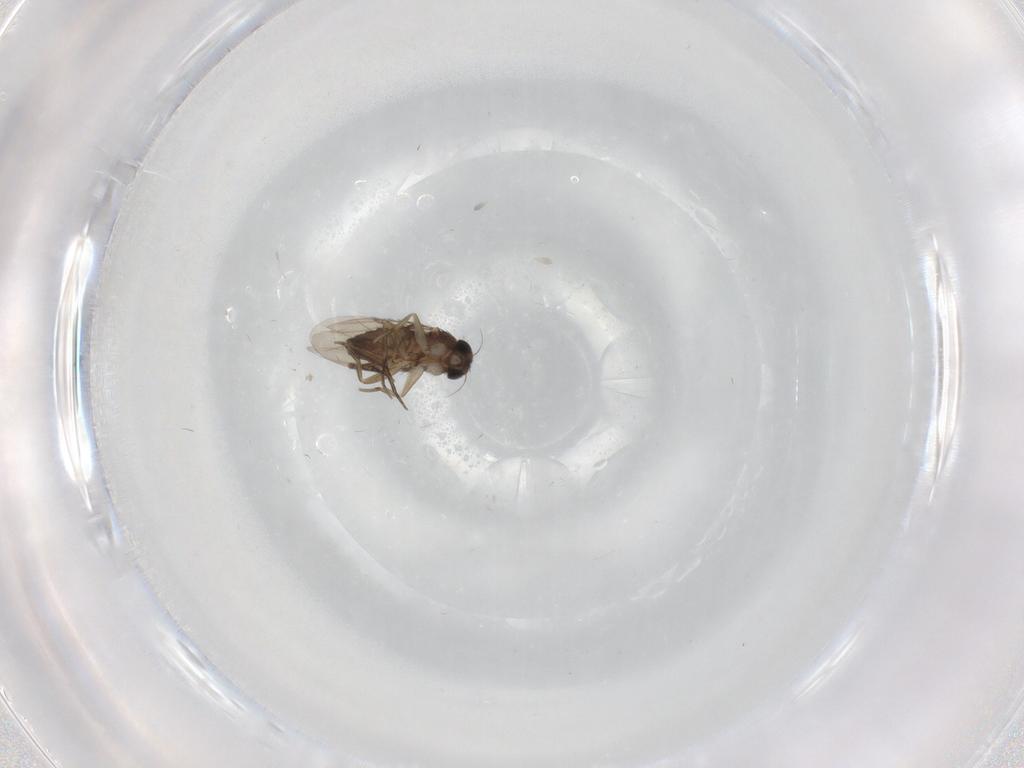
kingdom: Animalia
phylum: Arthropoda
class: Insecta
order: Diptera
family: Phoridae
